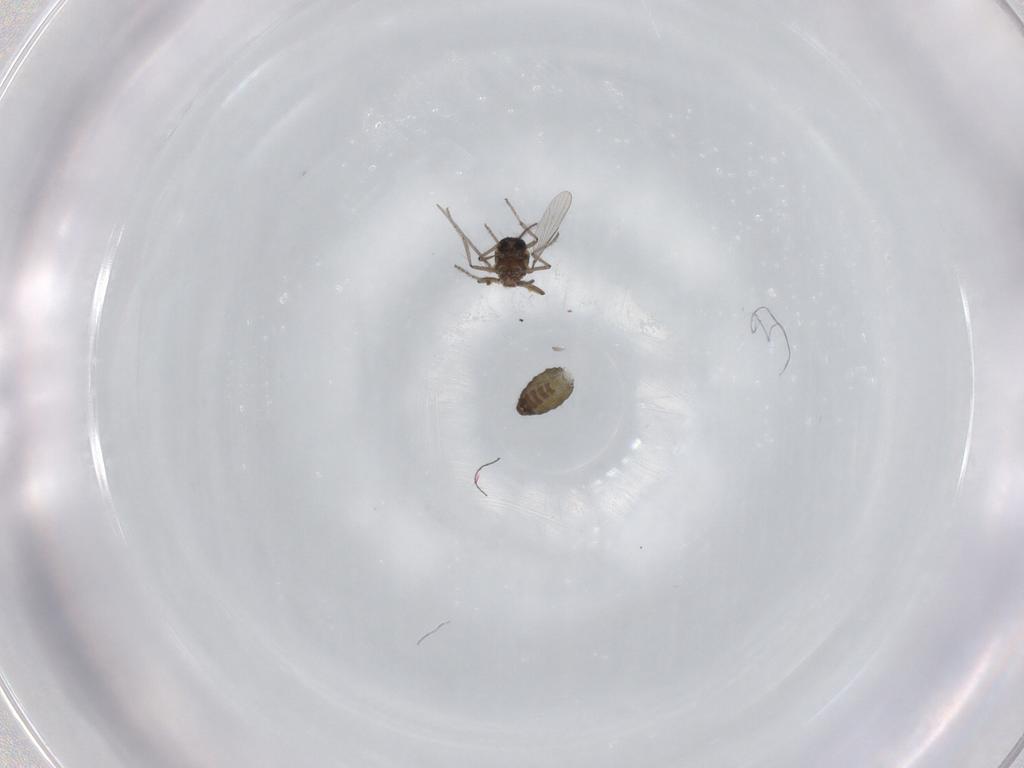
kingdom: Animalia
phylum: Arthropoda
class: Insecta
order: Diptera
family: Ceratopogonidae
